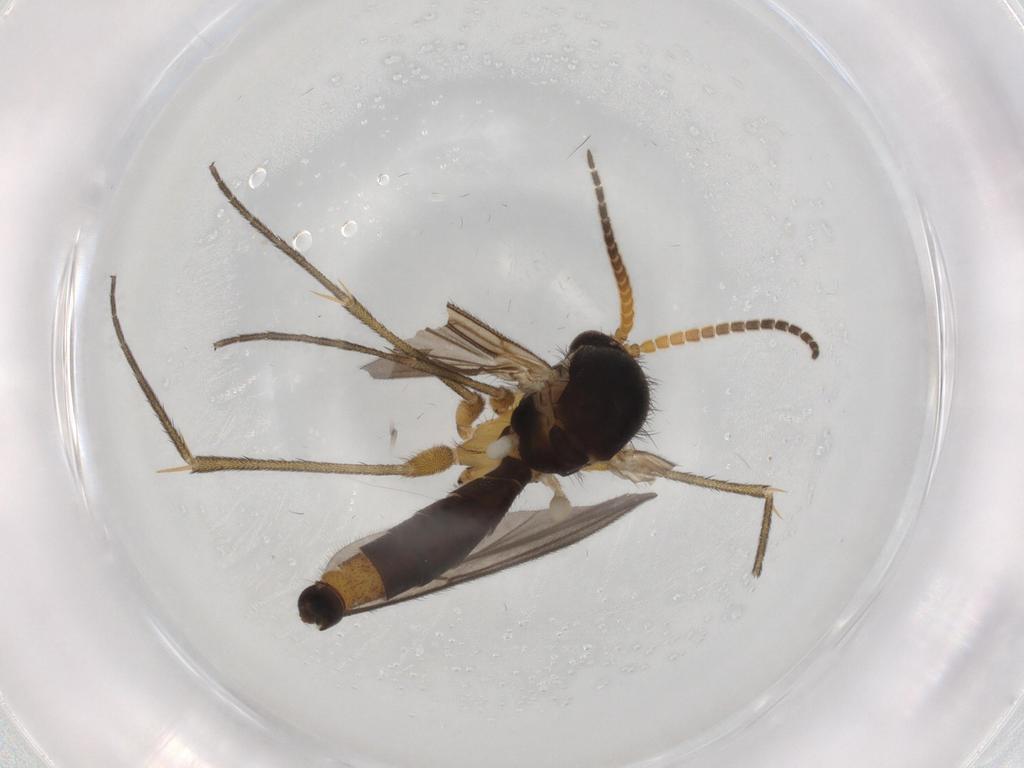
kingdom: Animalia
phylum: Arthropoda
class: Insecta
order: Diptera
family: Mycetophilidae
